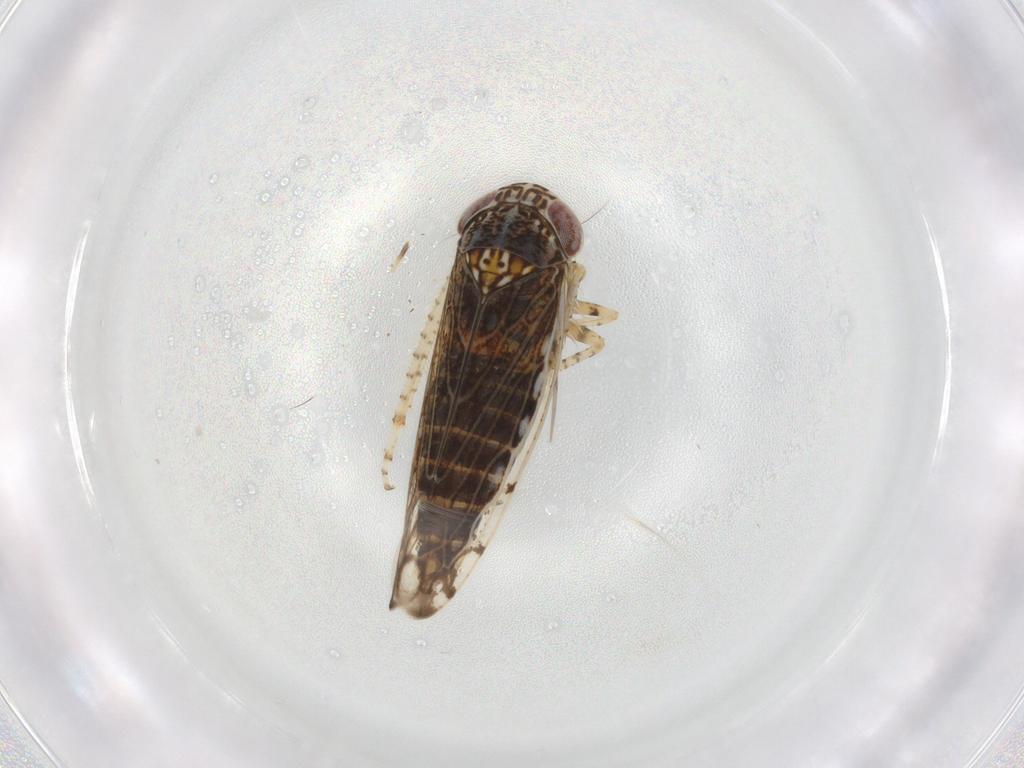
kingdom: Animalia
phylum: Arthropoda
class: Insecta
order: Hemiptera
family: Cicadellidae
